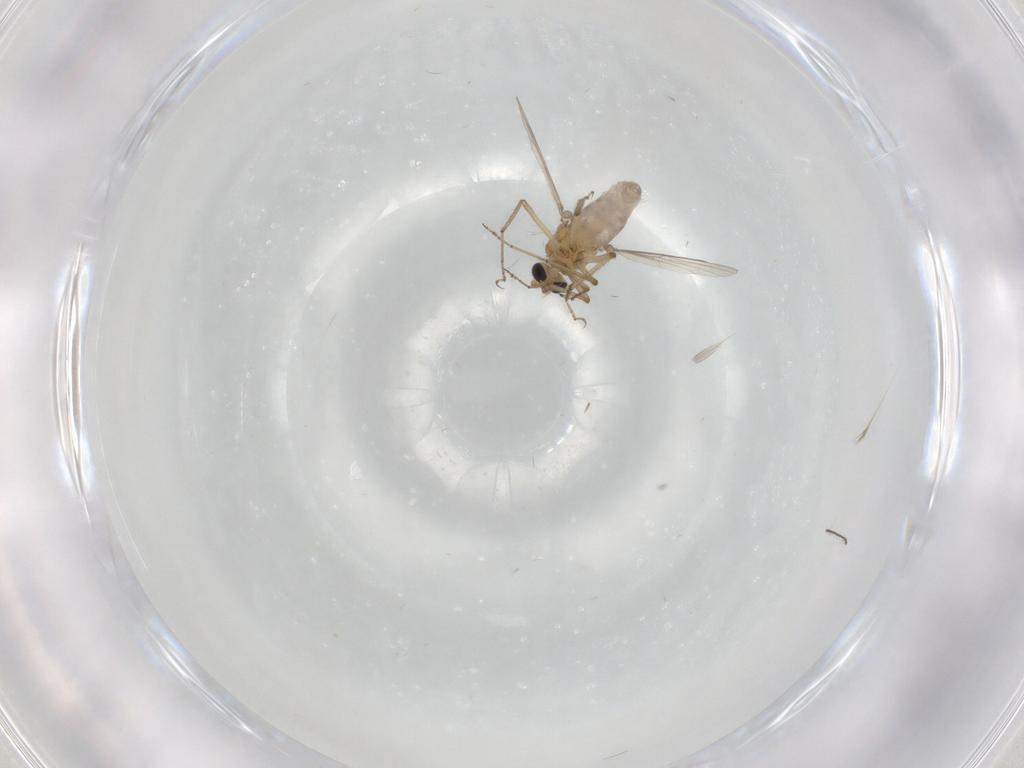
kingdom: Animalia
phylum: Arthropoda
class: Insecta
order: Diptera
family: Ceratopogonidae
